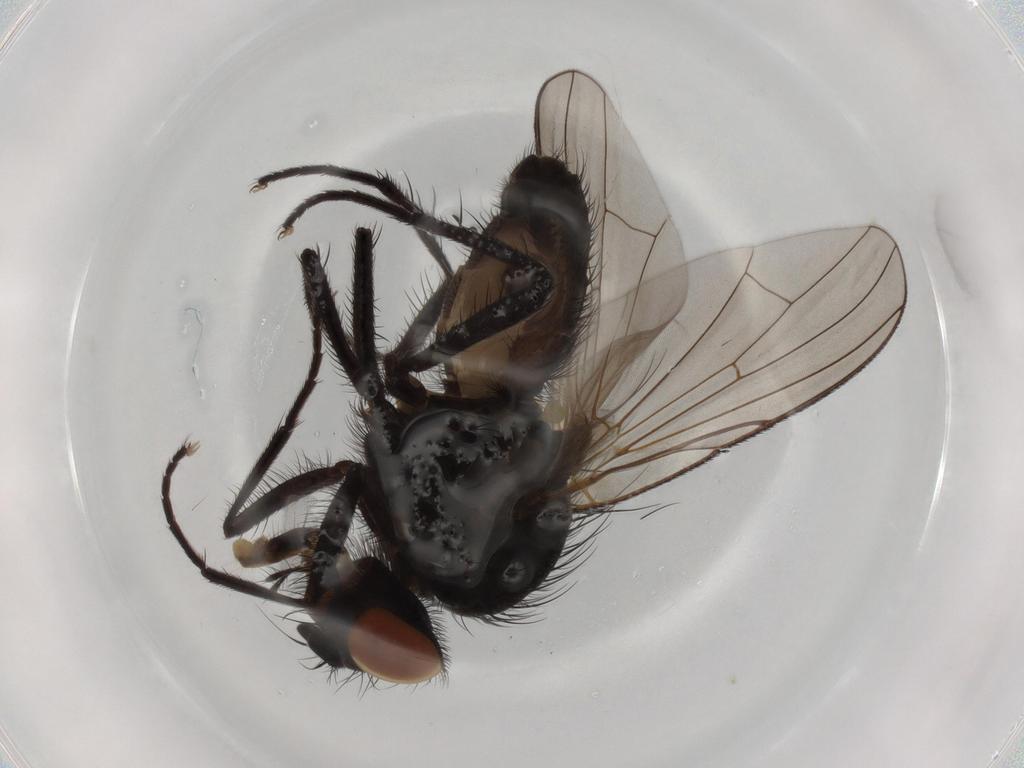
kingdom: Animalia
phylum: Arthropoda
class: Insecta
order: Diptera
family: Anthomyiidae
